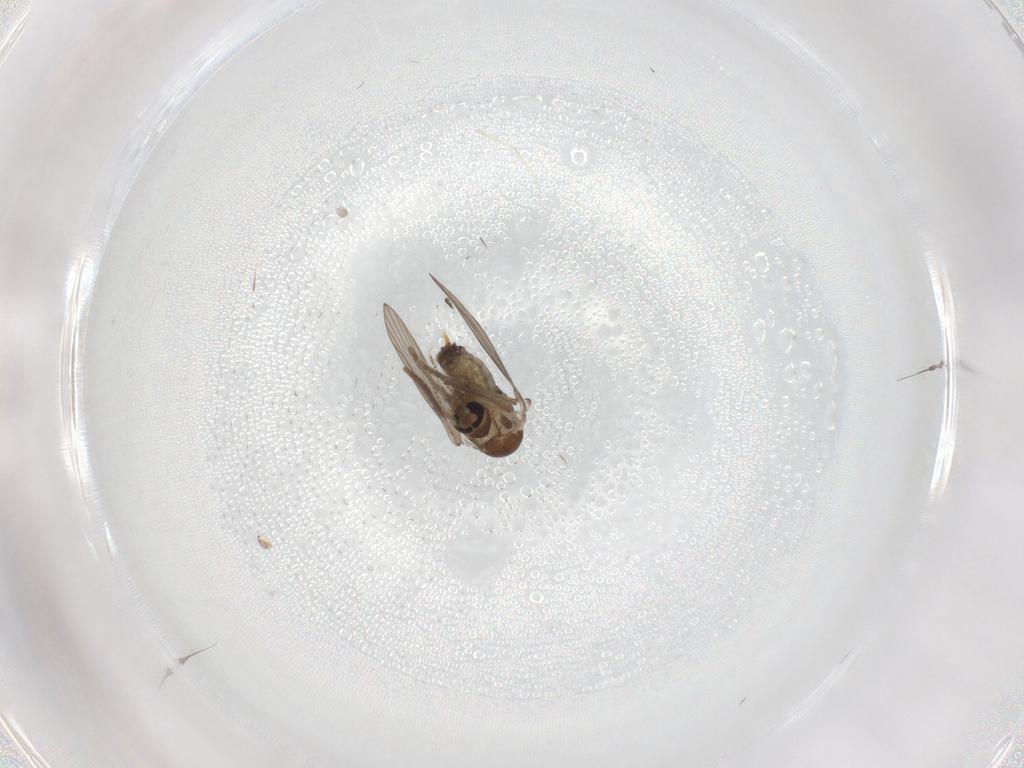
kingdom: Animalia
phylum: Arthropoda
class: Insecta
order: Diptera
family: Psychodidae
